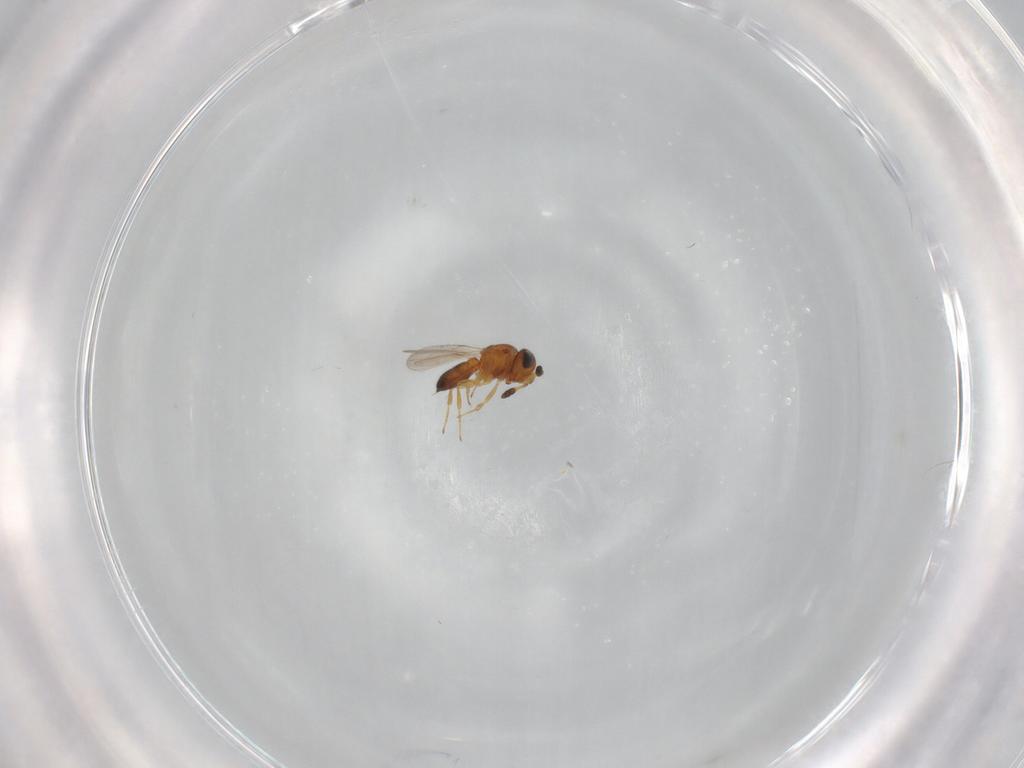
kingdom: Animalia
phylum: Arthropoda
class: Insecta
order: Hymenoptera
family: Scelionidae
